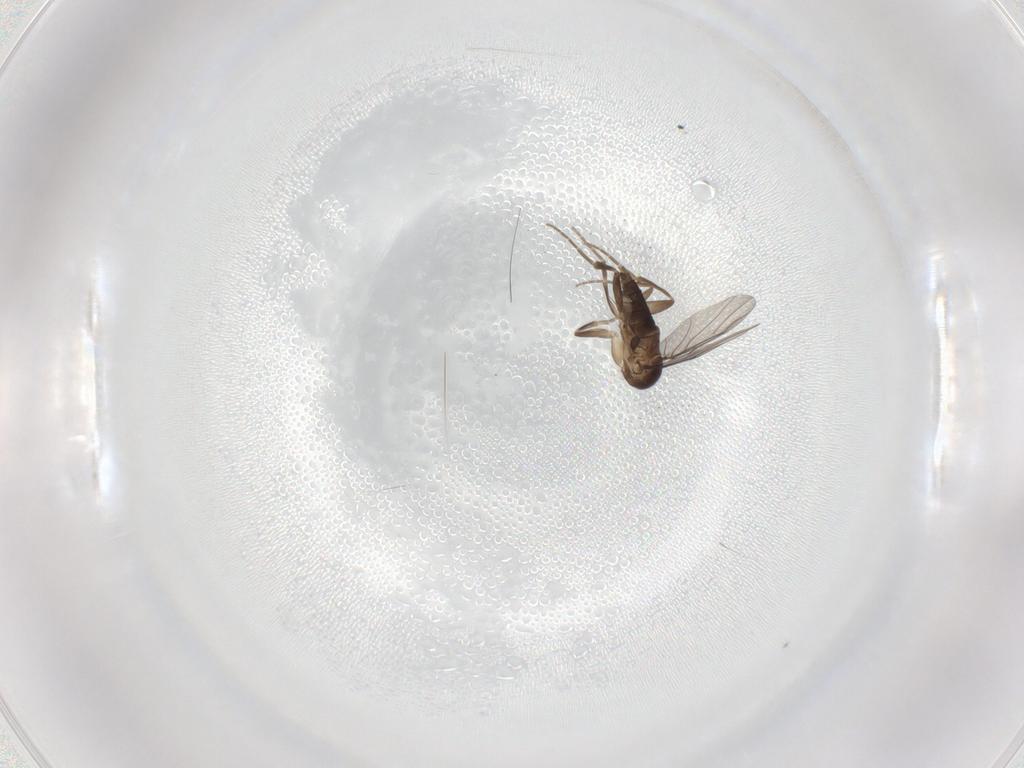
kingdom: Animalia
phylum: Arthropoda
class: Insecta
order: Diptera
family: Phoridae
